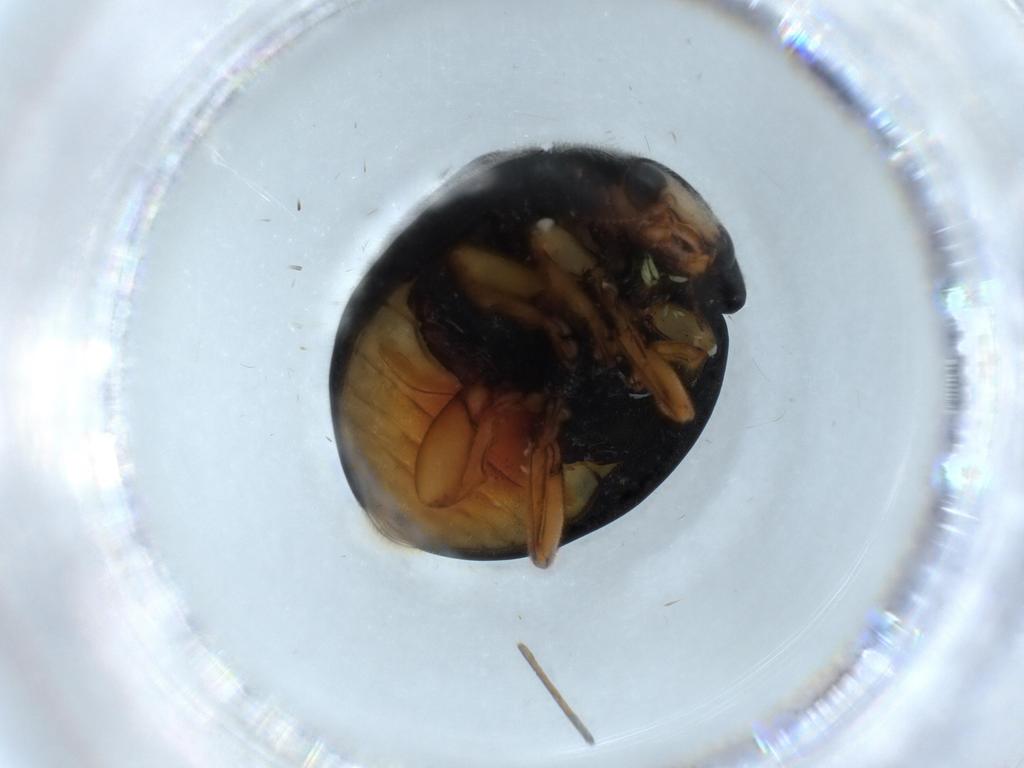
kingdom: Animalia
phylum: Arthropoda
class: Insecta
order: Coleoptera
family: Coccinellidae
